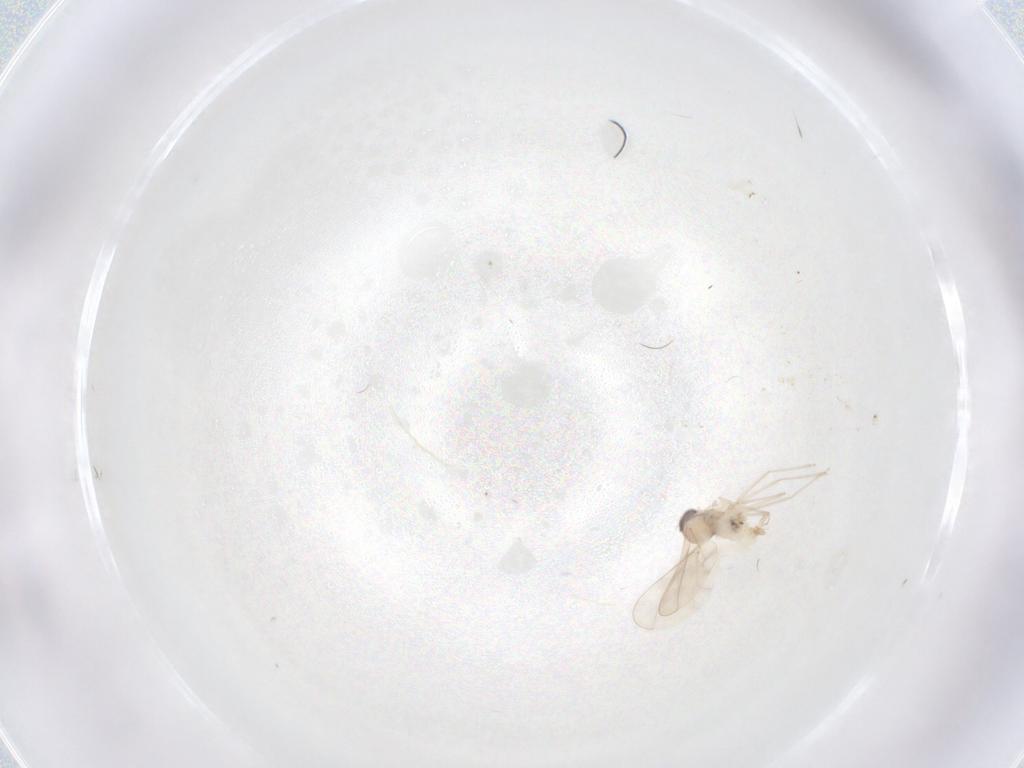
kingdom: Animalia
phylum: Arthropoda
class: Insecta
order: Diptera
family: Cecidomyiidae
